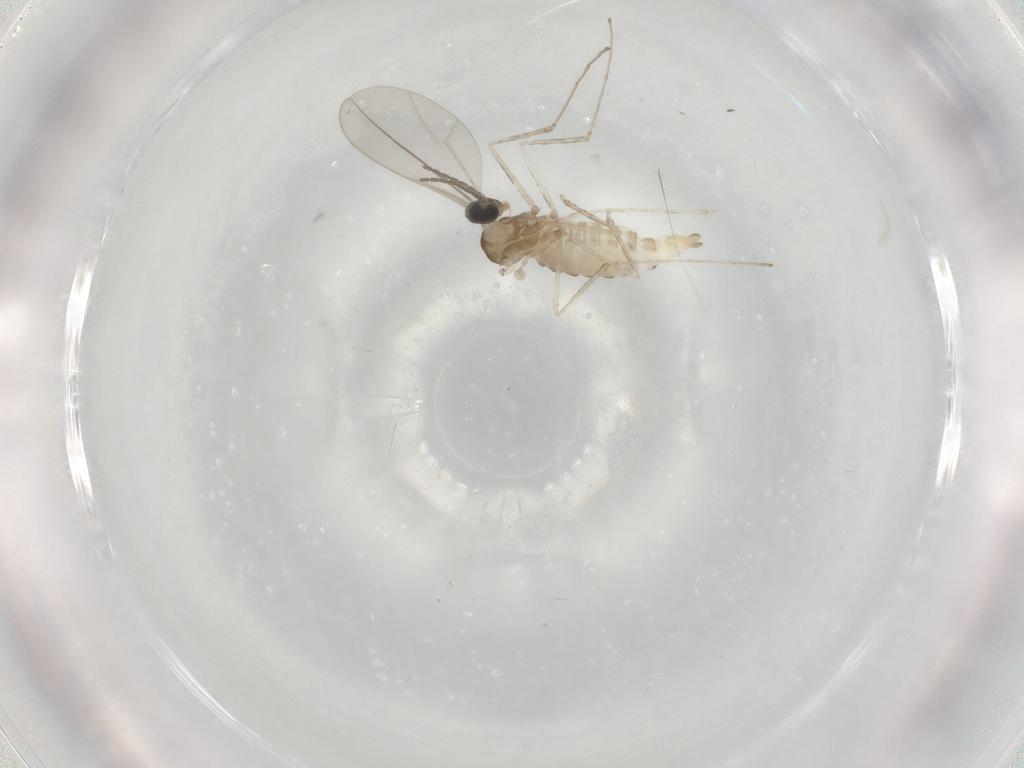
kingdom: Animalia
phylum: Arthropoda
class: Insecta
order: Diptera
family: Cecidomyiidae
